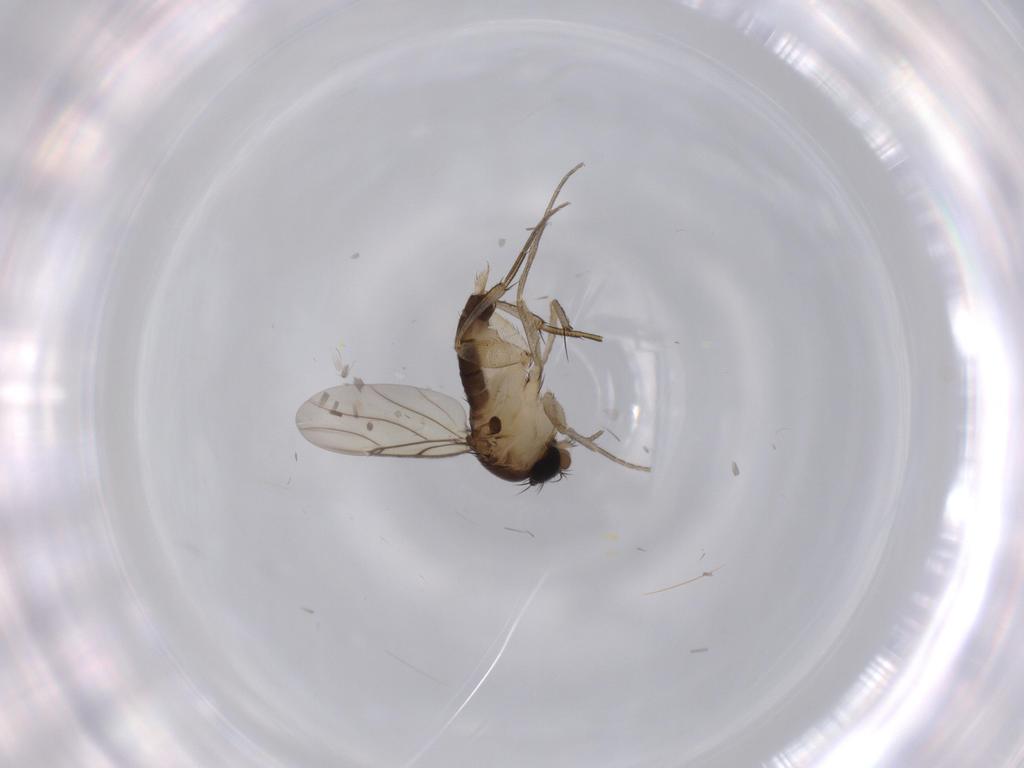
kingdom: Animalia
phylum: Arthropoda
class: Insecta
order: Diptera
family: Phoridae
